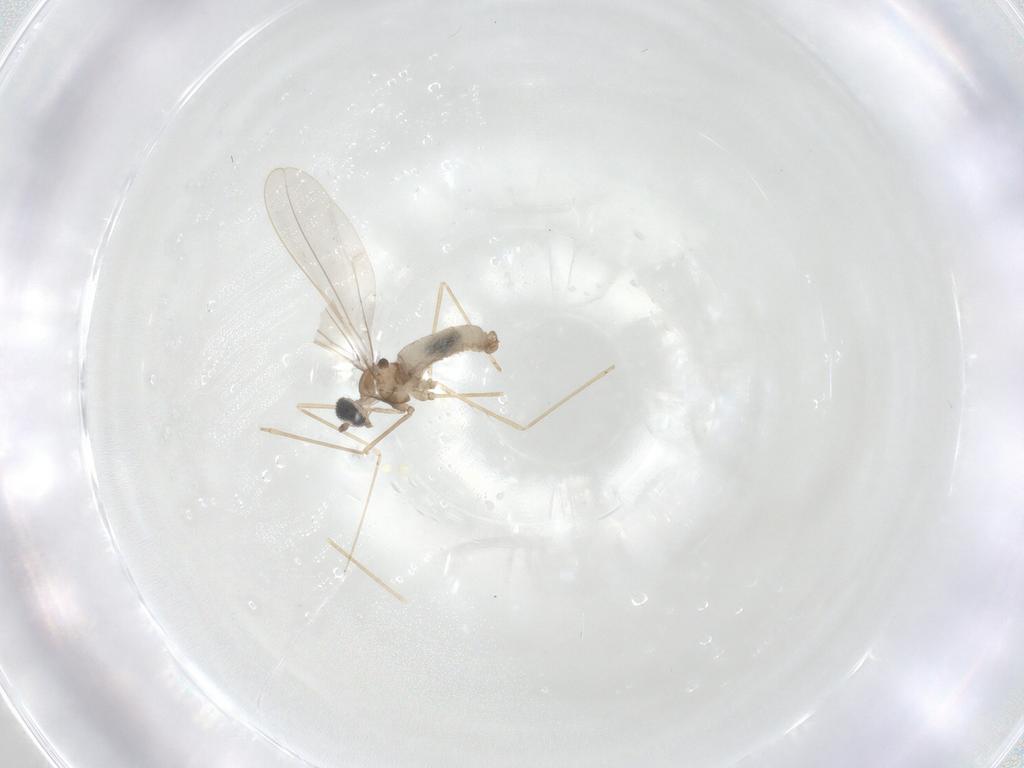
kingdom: Animalia
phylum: Arthropoda
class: Insecta
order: Diptera
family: Cecidomyiidae
